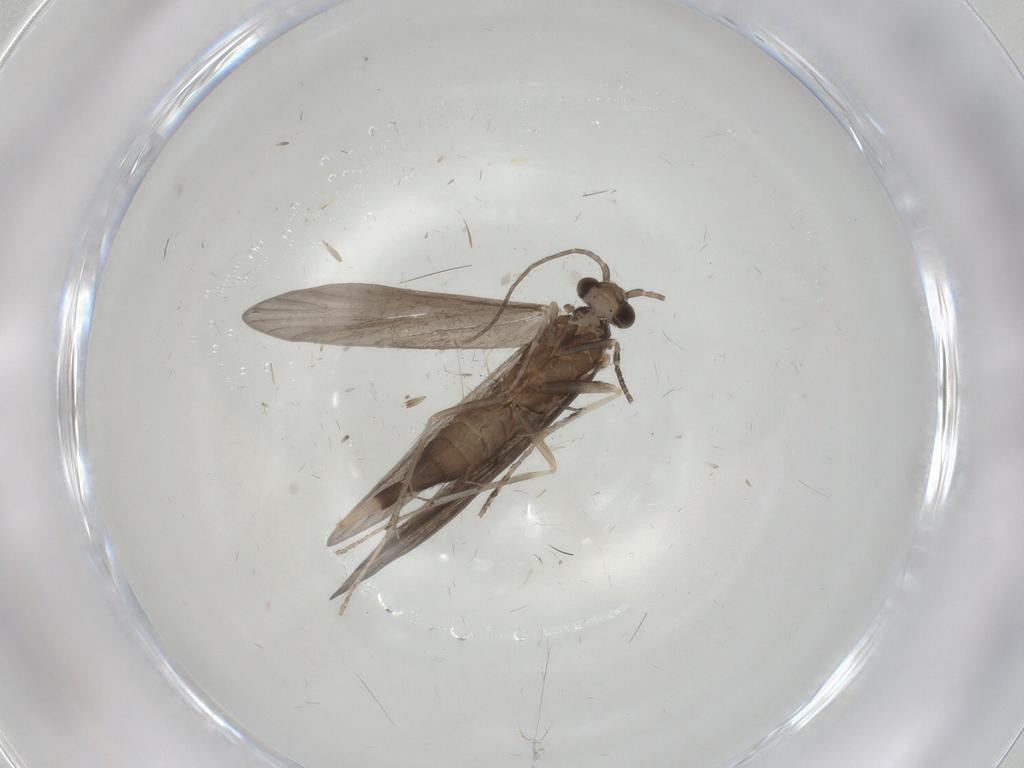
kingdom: Animalia
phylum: Arthropoda
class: Insecta
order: Trichoptera
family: Xiphocentronidae
